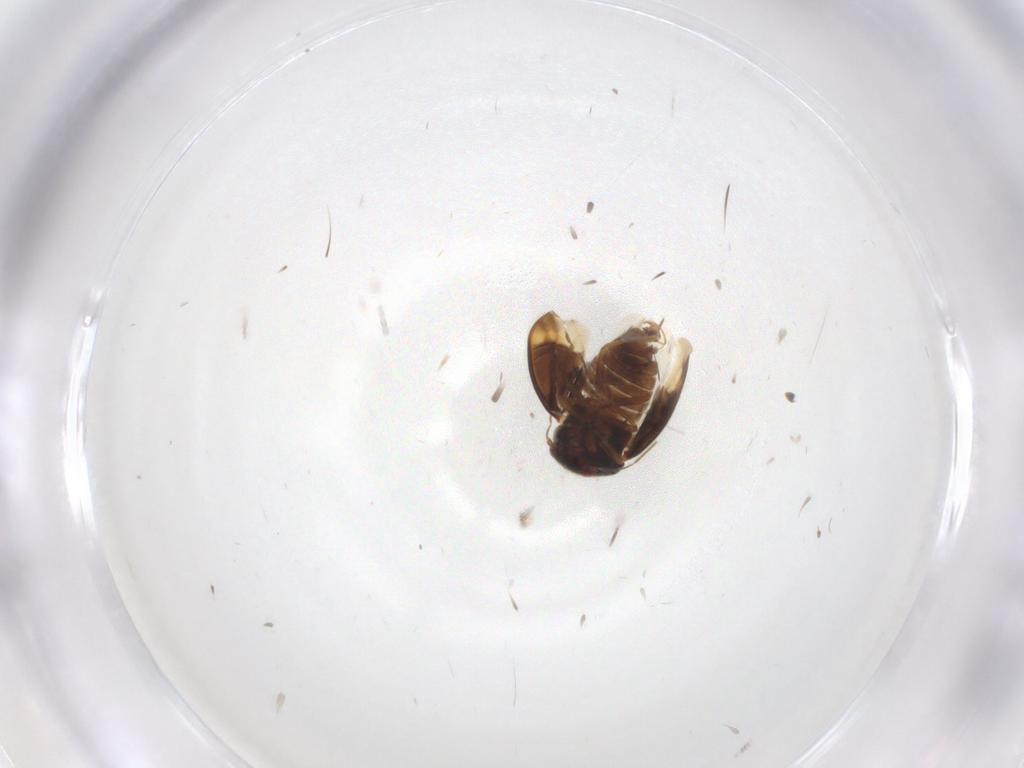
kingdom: Animalia
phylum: Arthropoda
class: Insecta
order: Hemiptera
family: Schizopteridae
